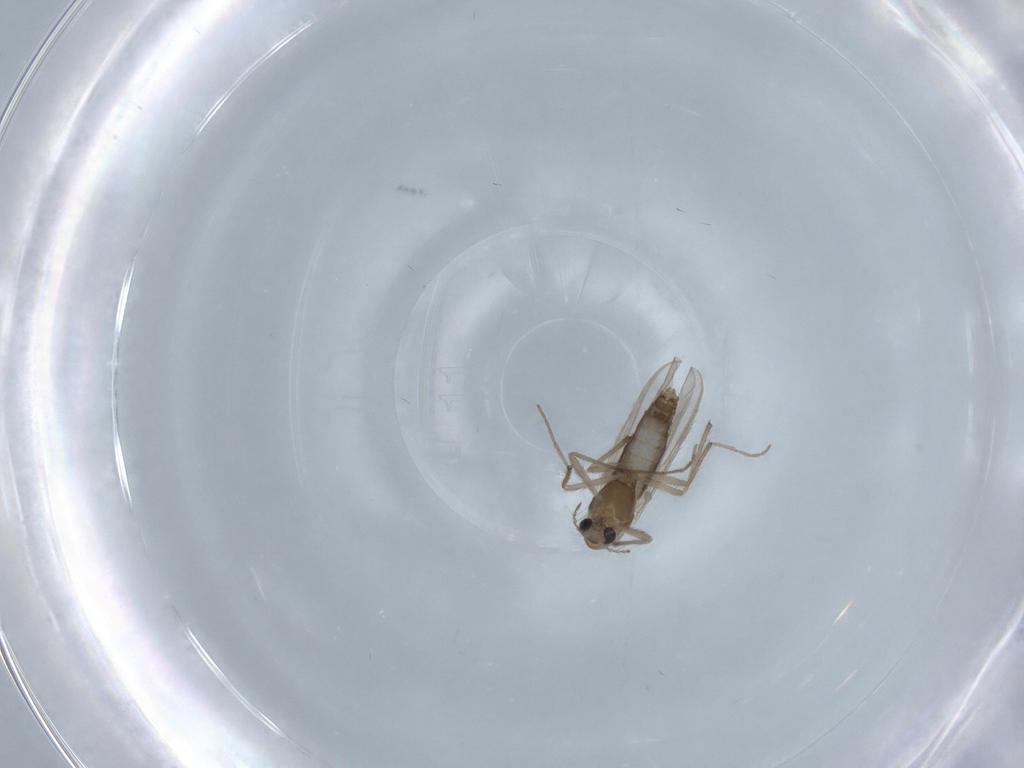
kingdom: Animalia
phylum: Arthropoda
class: Insecta
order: Diptera
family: Chironomidae
